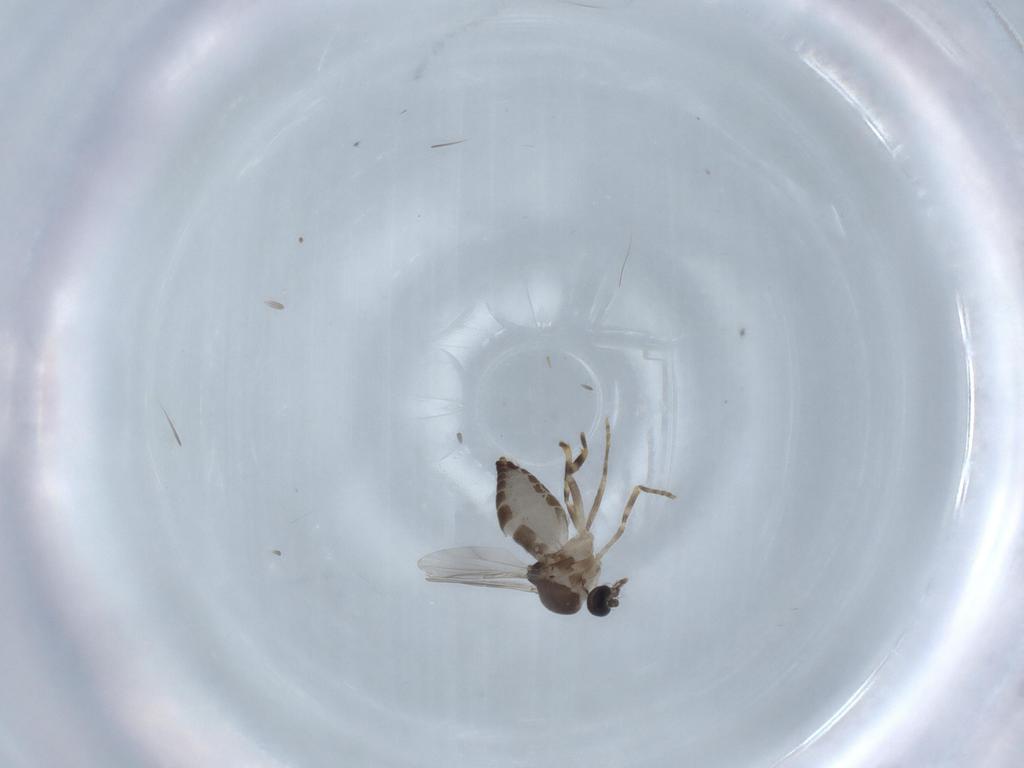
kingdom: Animalia
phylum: Arthropoda
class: Insecta
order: Diptera
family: Ceratopogonidae
